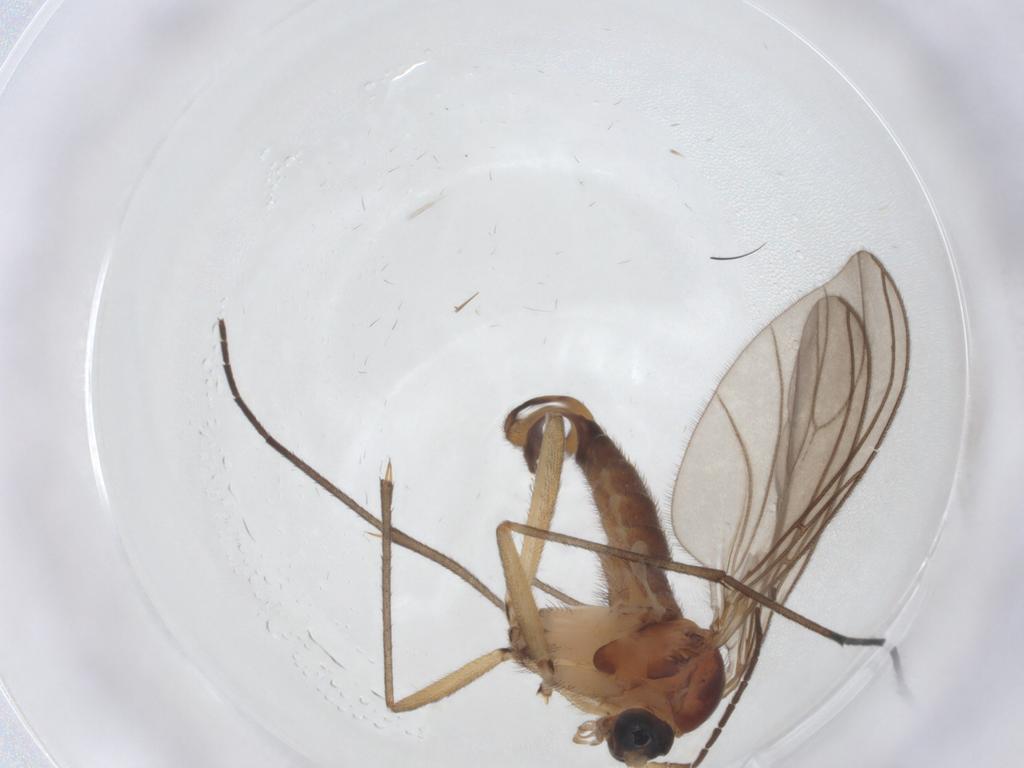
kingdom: Animalia
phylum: Arthropoda
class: Insecta
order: Diptera
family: Sciaridae
